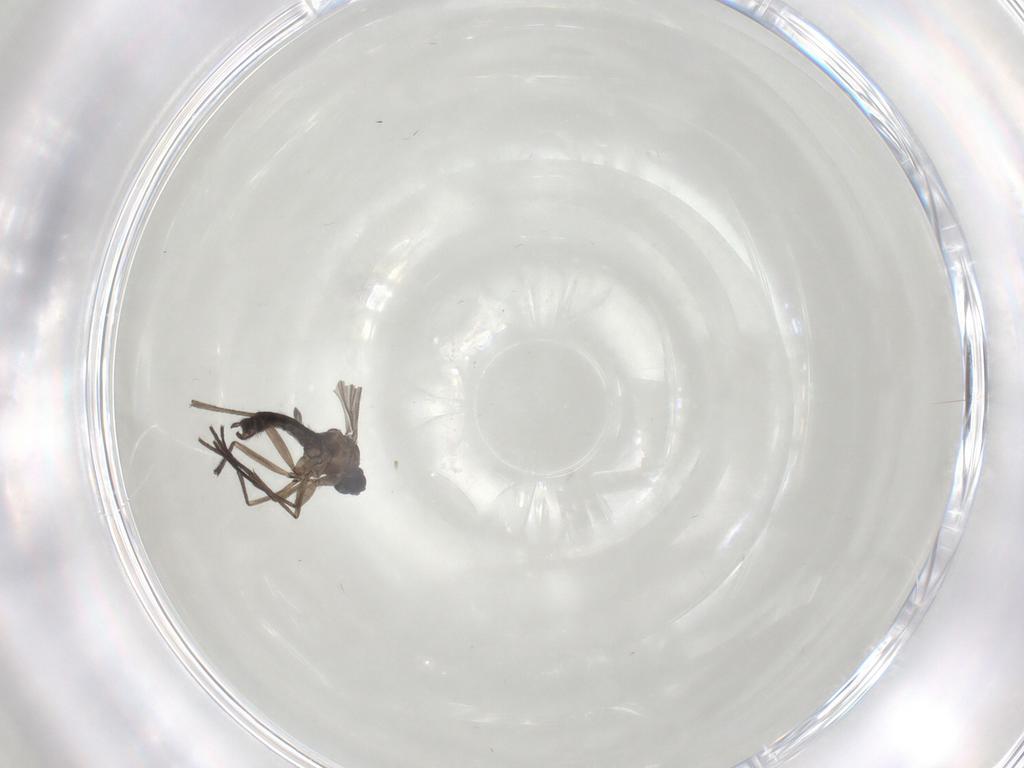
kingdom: Animalia
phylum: Arthropoda
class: Insecta
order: Diptera
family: Sciaridae
